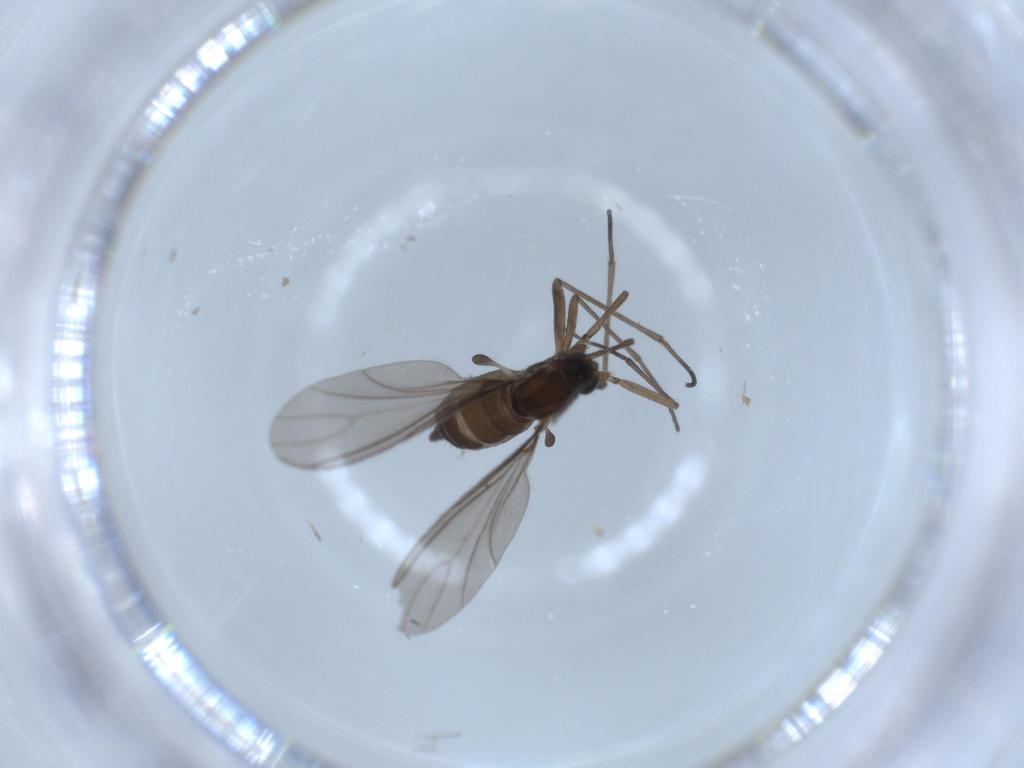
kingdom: Animalia
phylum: Arthropoda
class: Insecta
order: Diptera
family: Sciaridae
